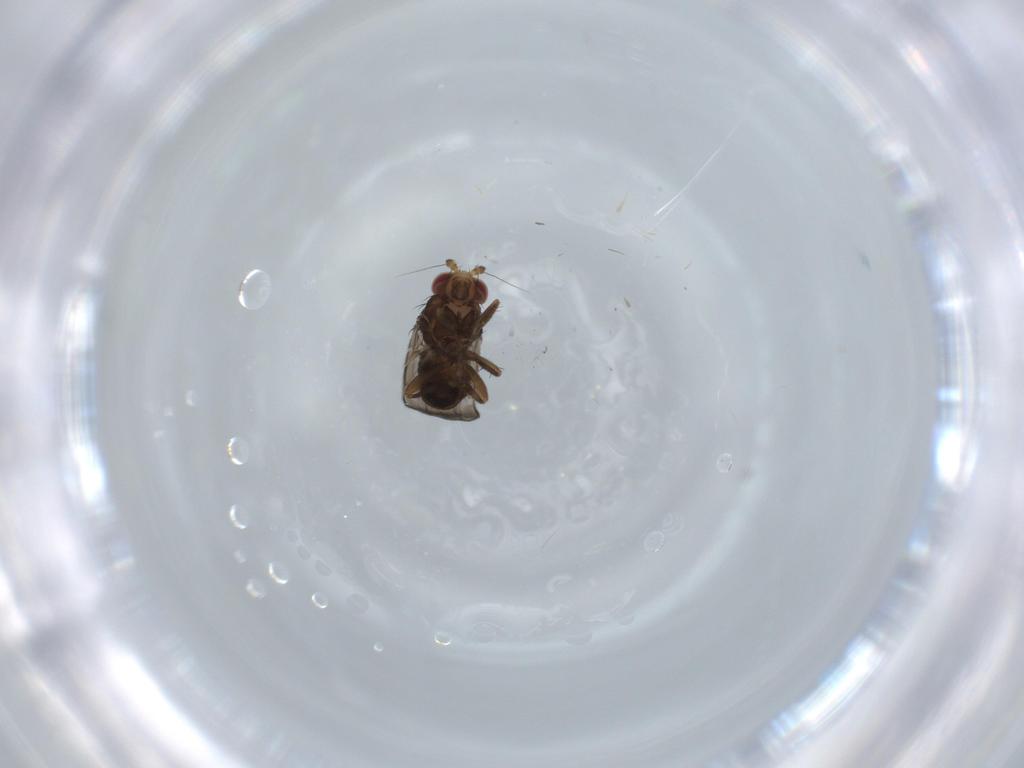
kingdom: Animalia
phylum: Arthropoda
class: Insecta
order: Diptera
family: Sphaeroceridae
